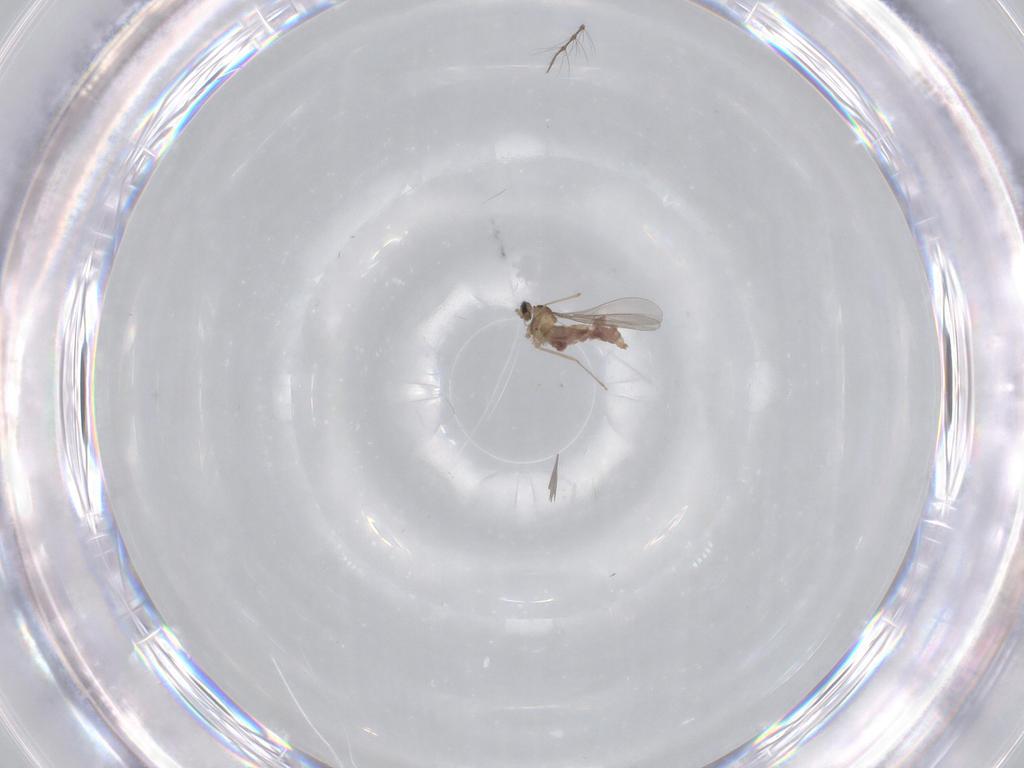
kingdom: Animalia
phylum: Arthropoda
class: Insecta
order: Diptera
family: Cecidomyiidae
